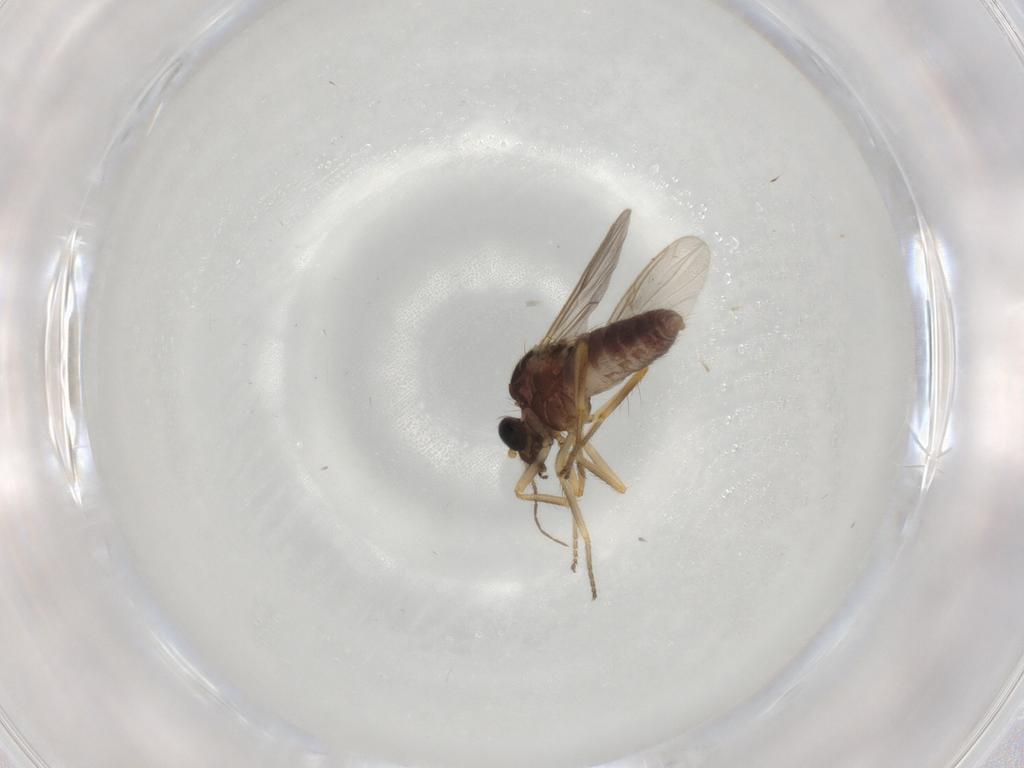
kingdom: Animalia
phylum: Arthropoda
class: Insecta
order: Diptera
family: Ceratopogonidae
